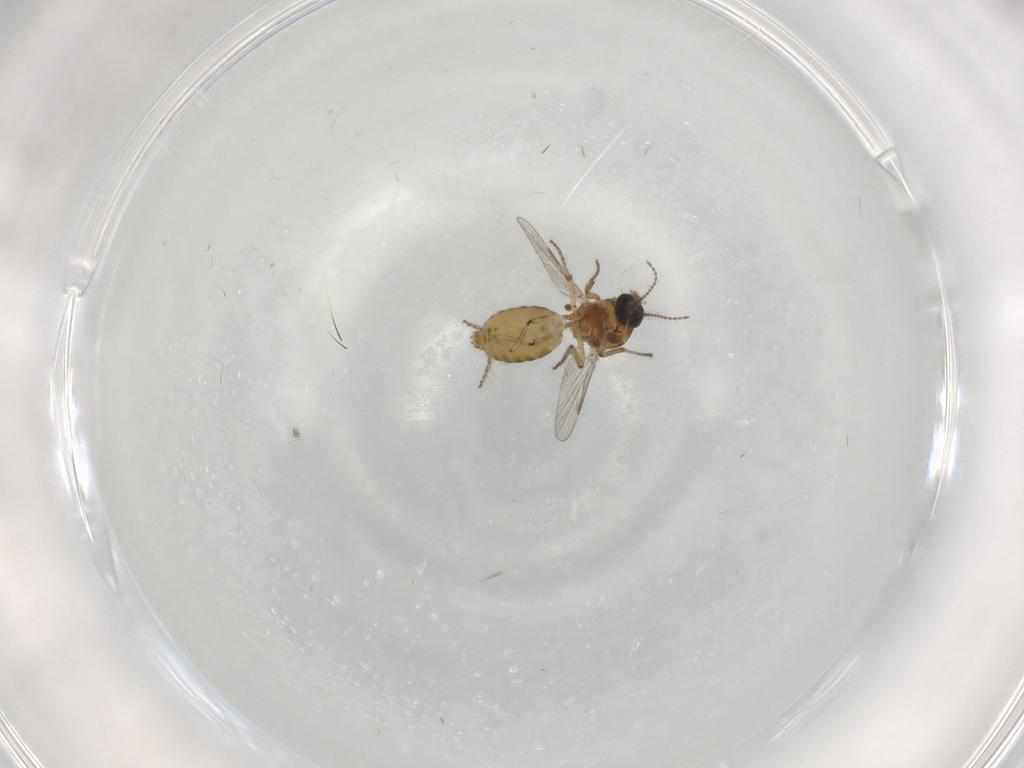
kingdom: Animalia
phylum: Arthropoda
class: Insecta
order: Diptera
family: Ceratopogonidae
